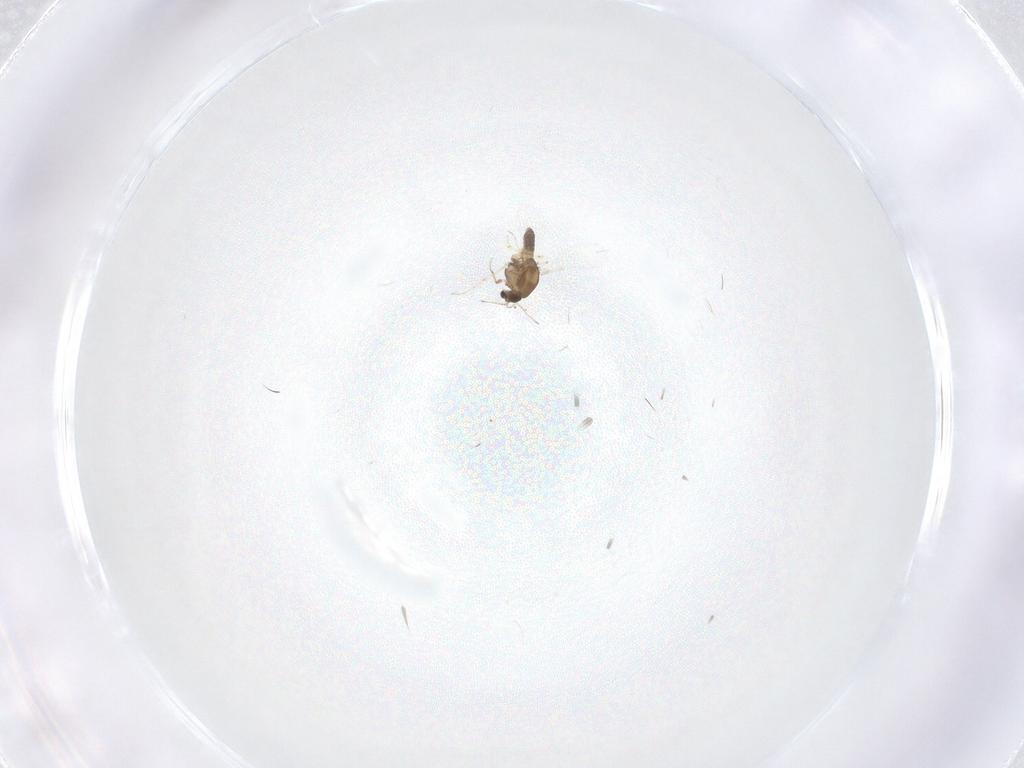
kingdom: Animalia
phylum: Arthropoda
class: Insecta
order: Diptera
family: Chironomidae
